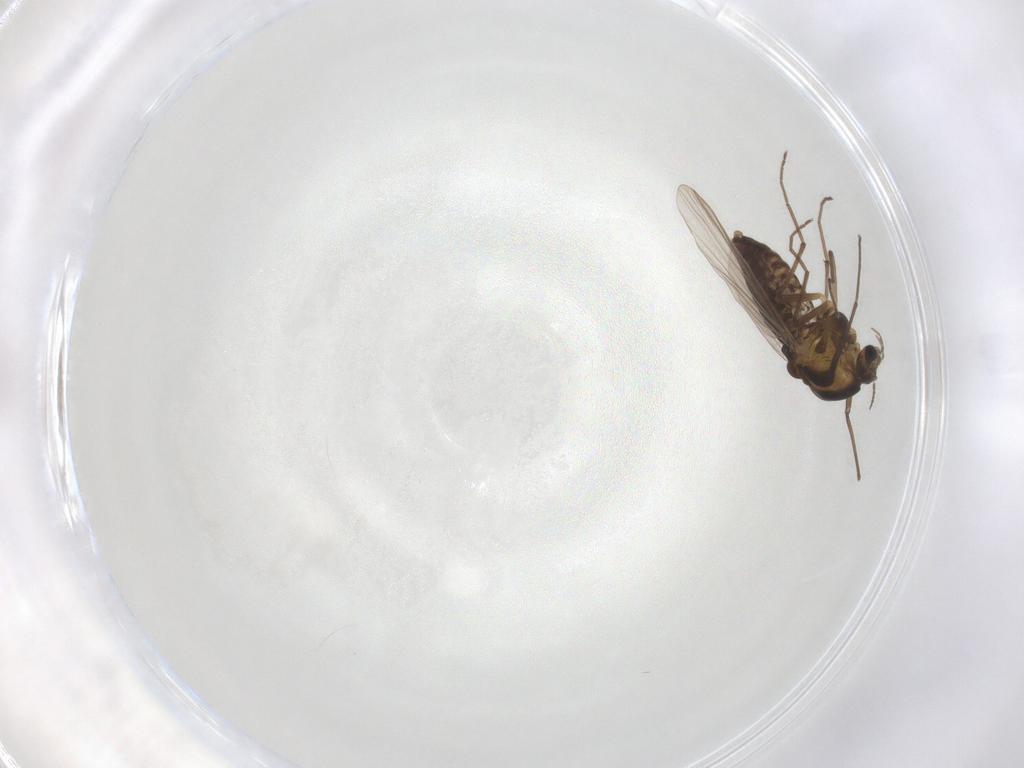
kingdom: Animalia
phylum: Arthropoda
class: Insecta
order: Diptera
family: Chironomidae
